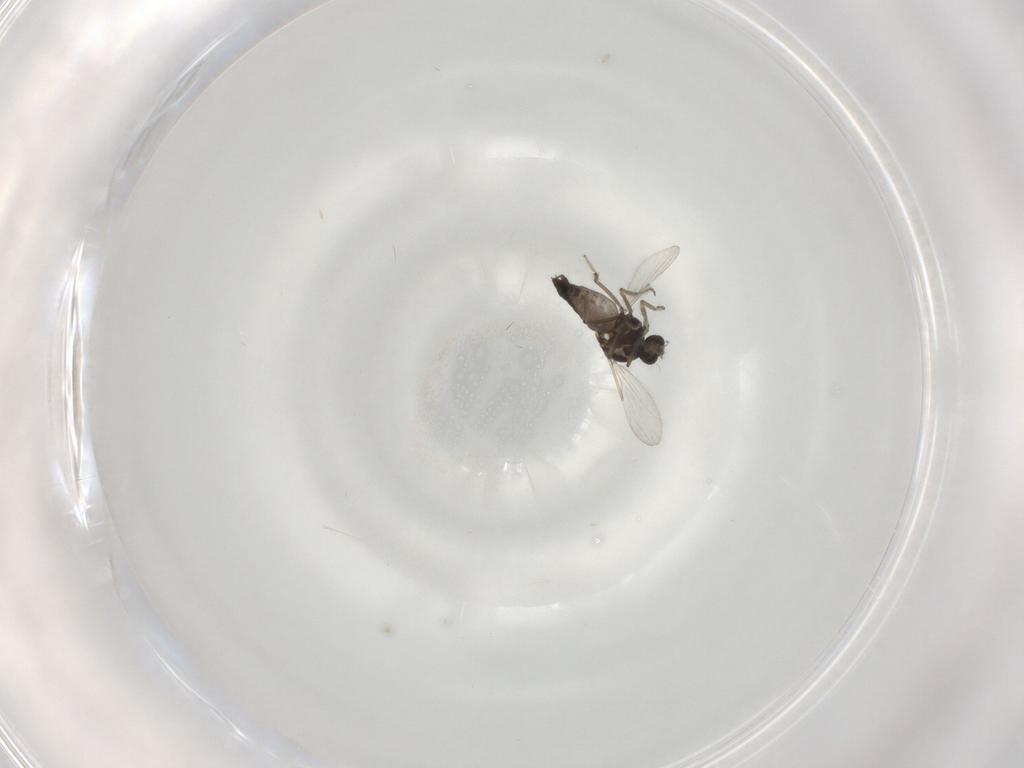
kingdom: Animalia
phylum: Arthropoda
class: Insecta
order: Diptera
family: Ceratopogonidae
